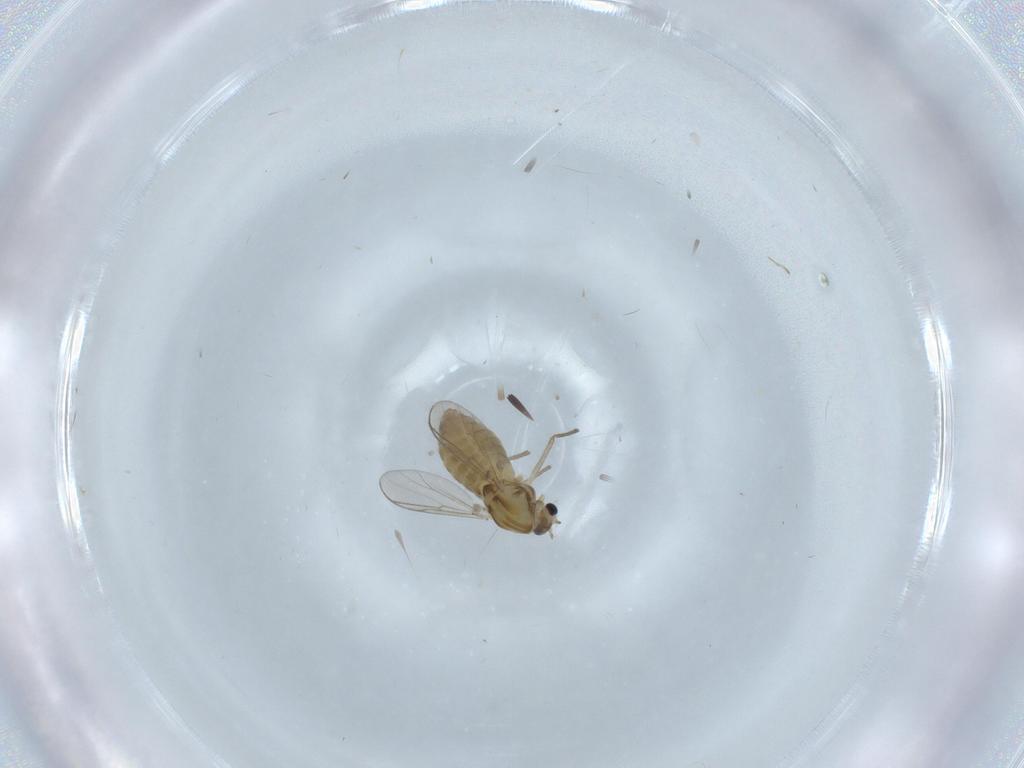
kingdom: Animalia
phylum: Arthropoda
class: Insecta
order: Diptera
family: Chironomidae
